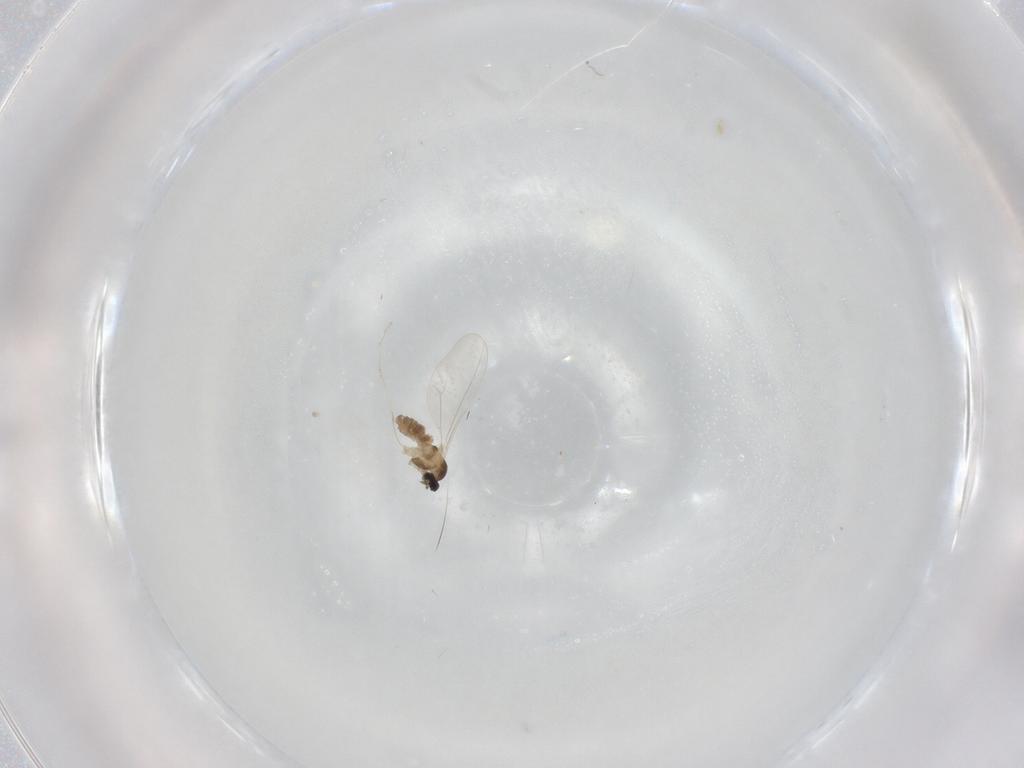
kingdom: Animalia
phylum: Arthropoda
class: Insecta
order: Diptera
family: Cecidomyiidae
